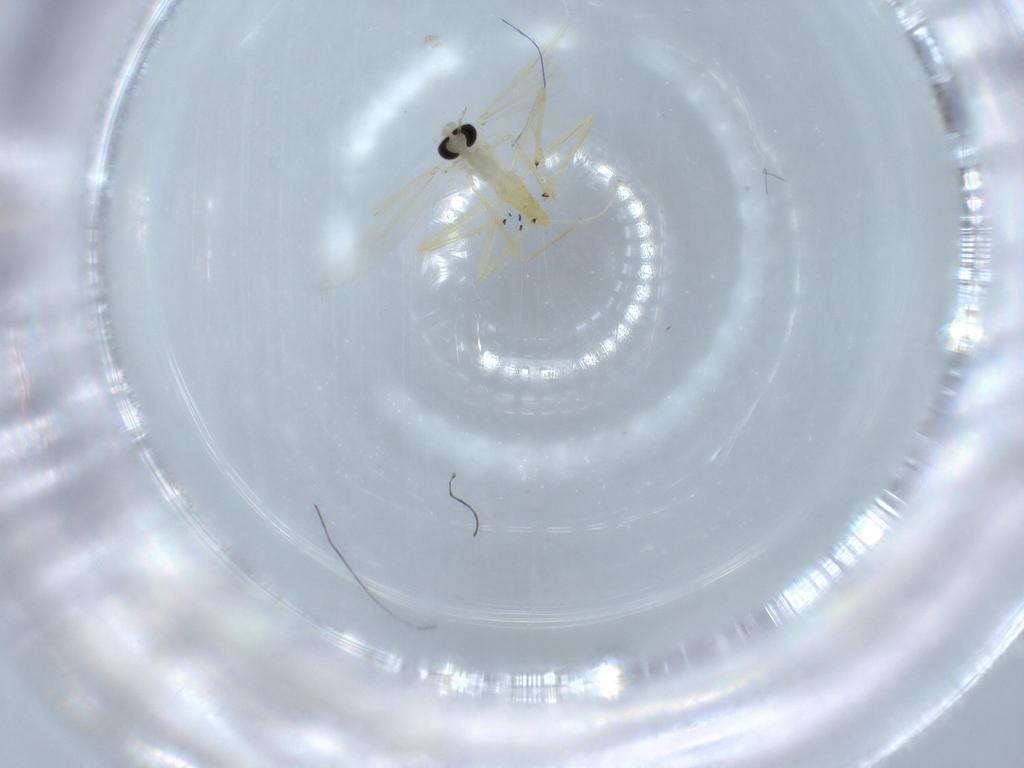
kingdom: Animalia
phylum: Arthropoda
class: Insecta
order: Diptera
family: Chironomidae
